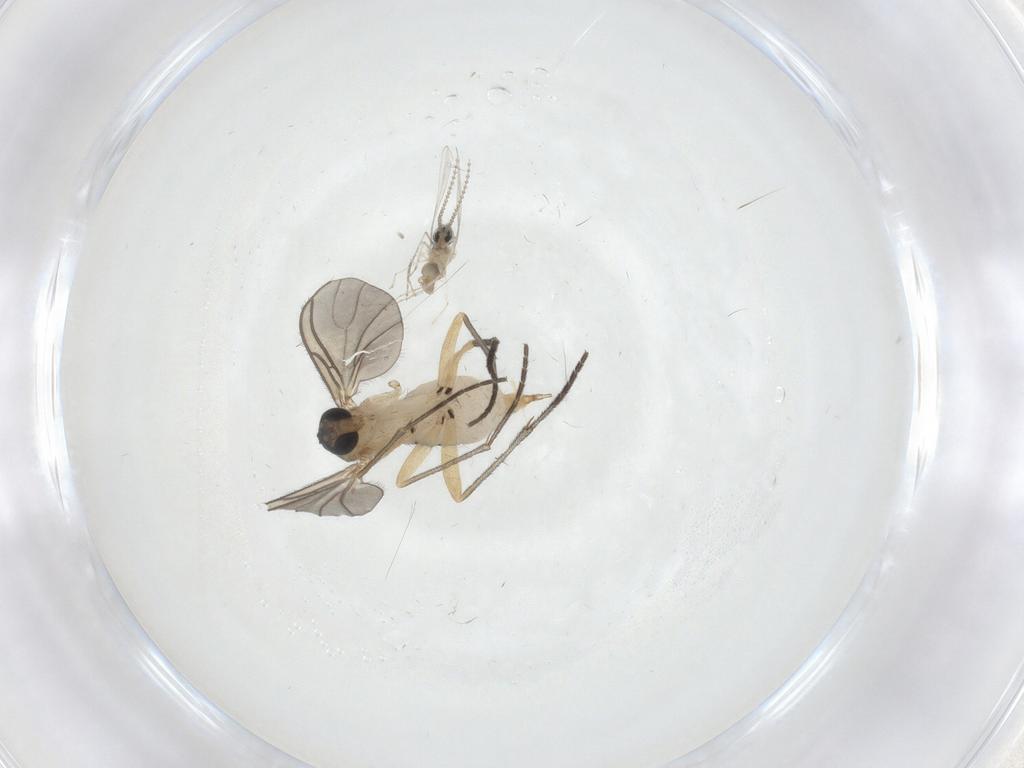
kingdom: Animalia
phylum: Arthropoda
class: Insecta
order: Diptera
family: Sciaridae
